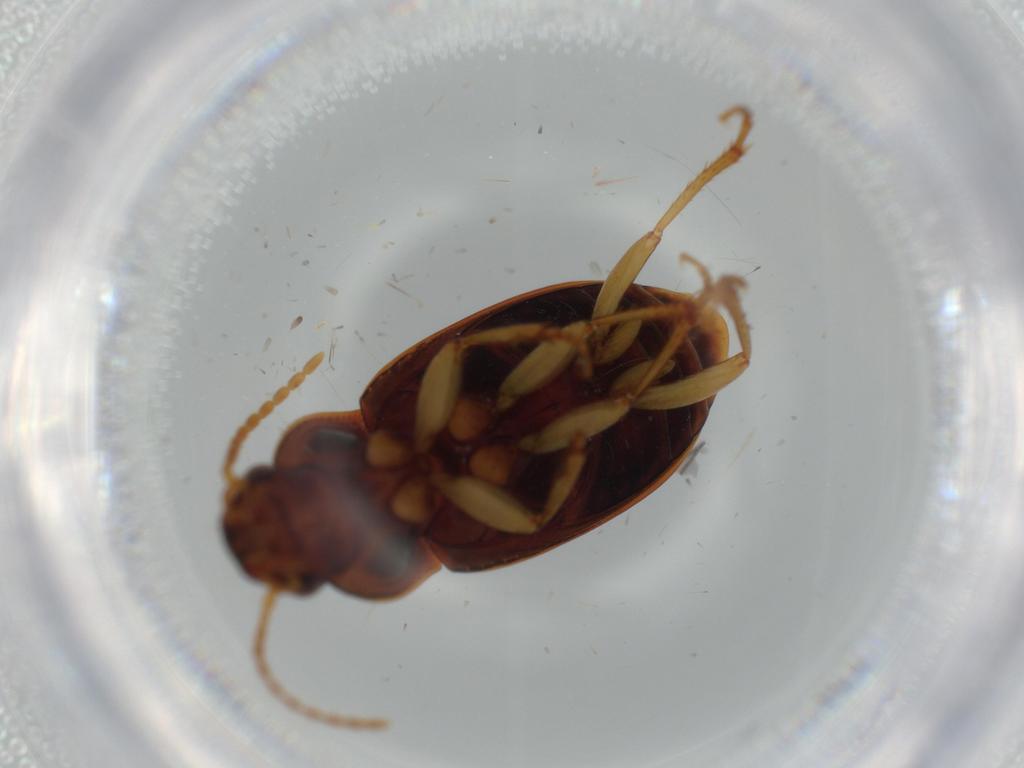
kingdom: Animalia
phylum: Arthropoda
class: Insecta
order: Coleoptera
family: Carabidae
